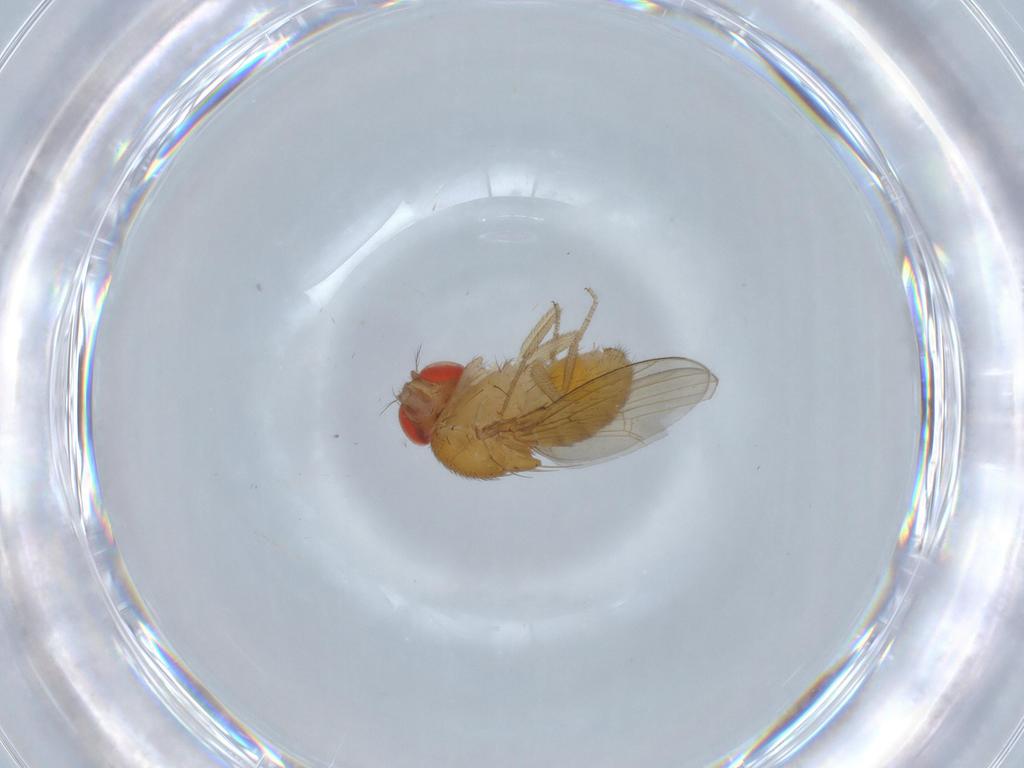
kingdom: Animalia
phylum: Arthropoda
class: Insecta
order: Diptera
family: Drosophilidae
